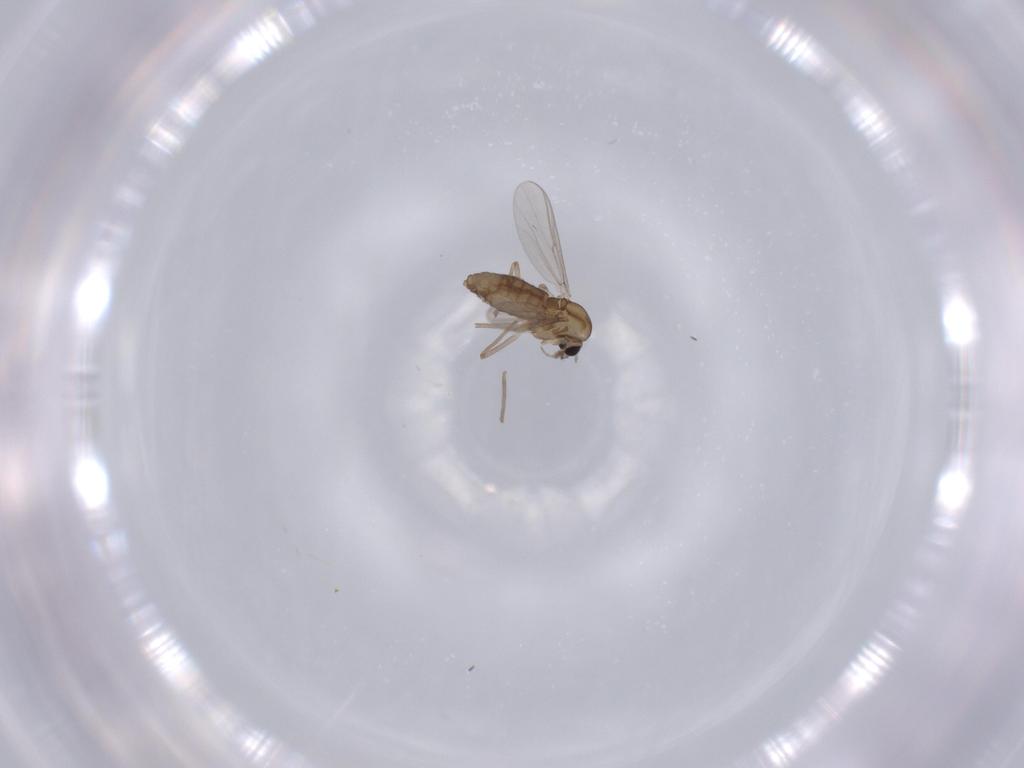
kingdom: Animalia
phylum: Arthropoda
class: Insecta
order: Diptera
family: Chironomidae
